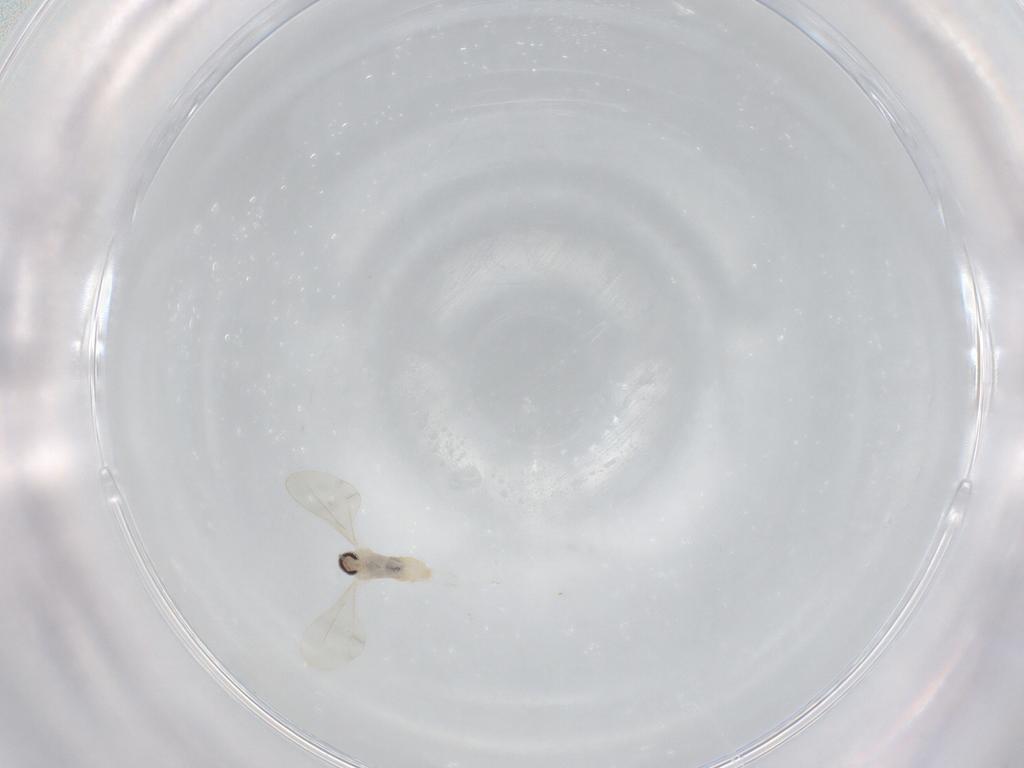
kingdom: Animalia
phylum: Arthropoda
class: Insecta
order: Diptera
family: Cecidomyiidae
